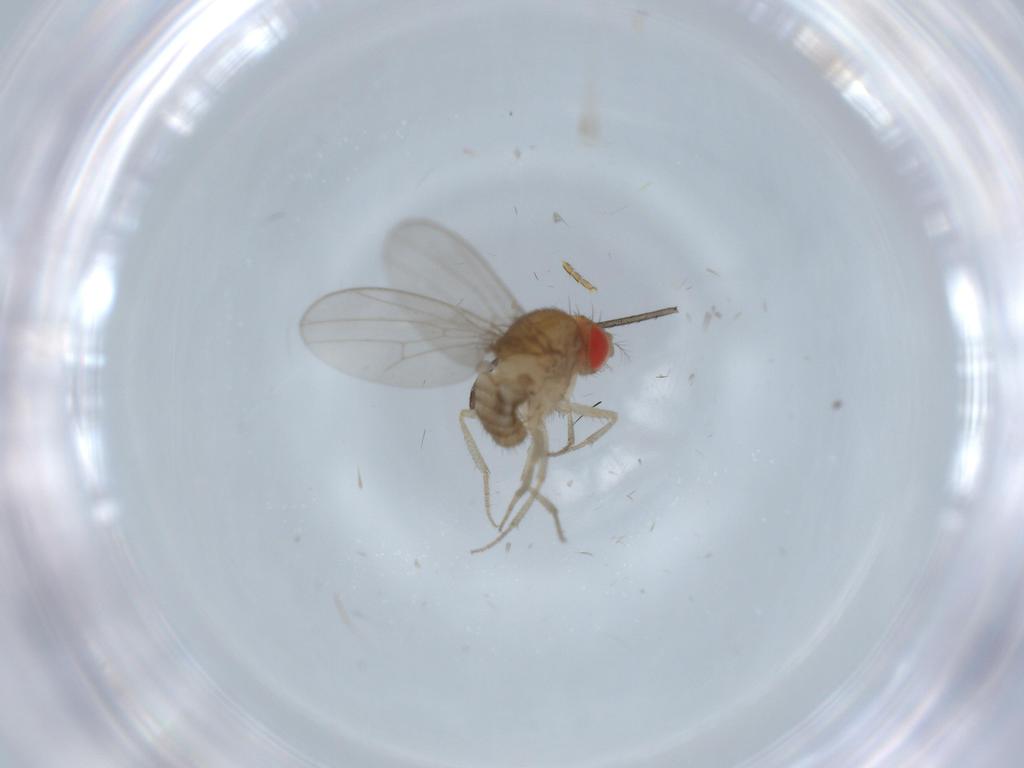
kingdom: Animalia
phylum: Arthropoda
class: Insecta
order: Diptera
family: Drosophilidae
